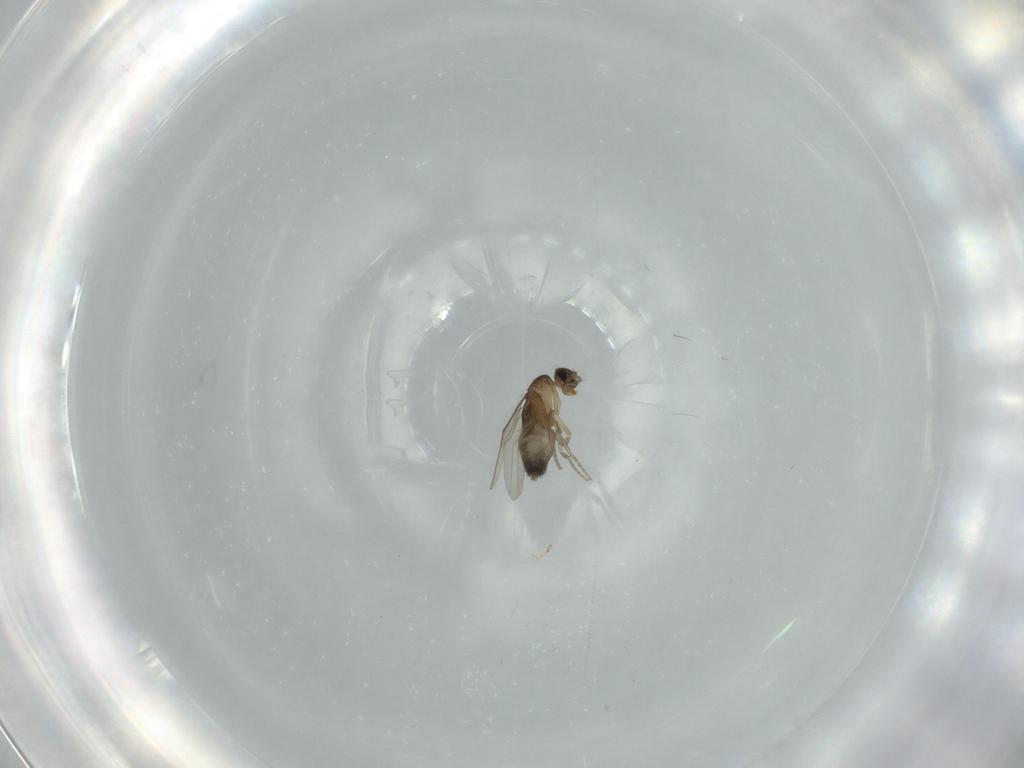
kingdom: Animalia
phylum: Arthropoda
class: Insecta
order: Diptera
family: Phoridae
